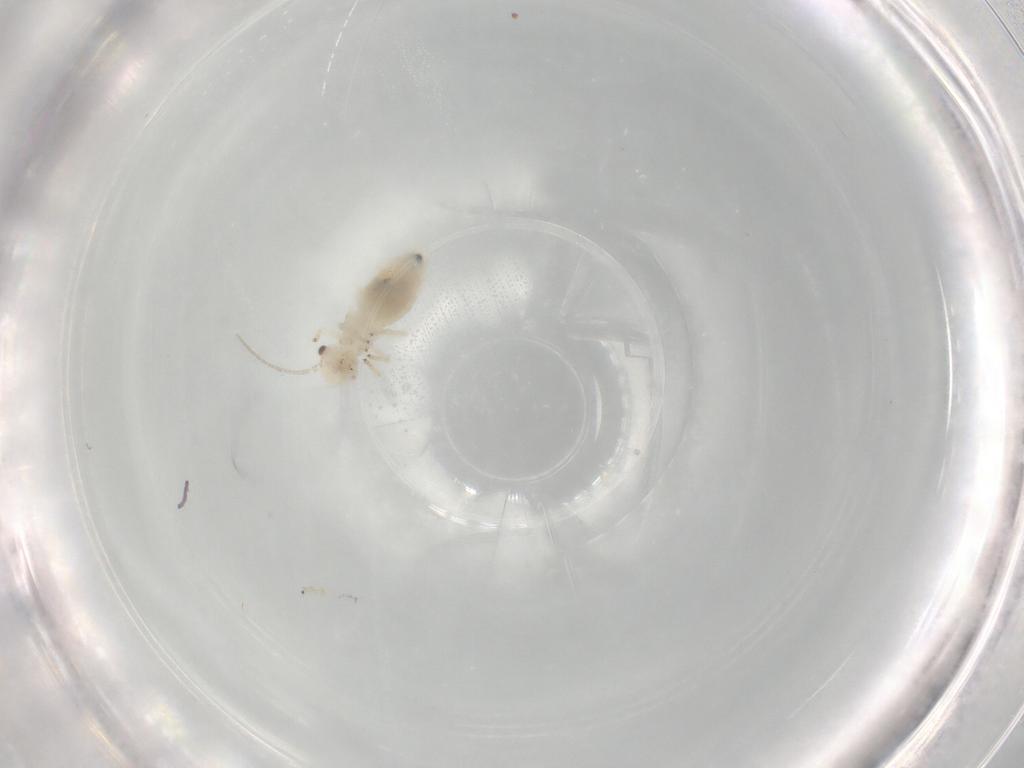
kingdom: Animalia
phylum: Arthropoda
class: Insecta
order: Psocodea
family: Caeciliusidae
